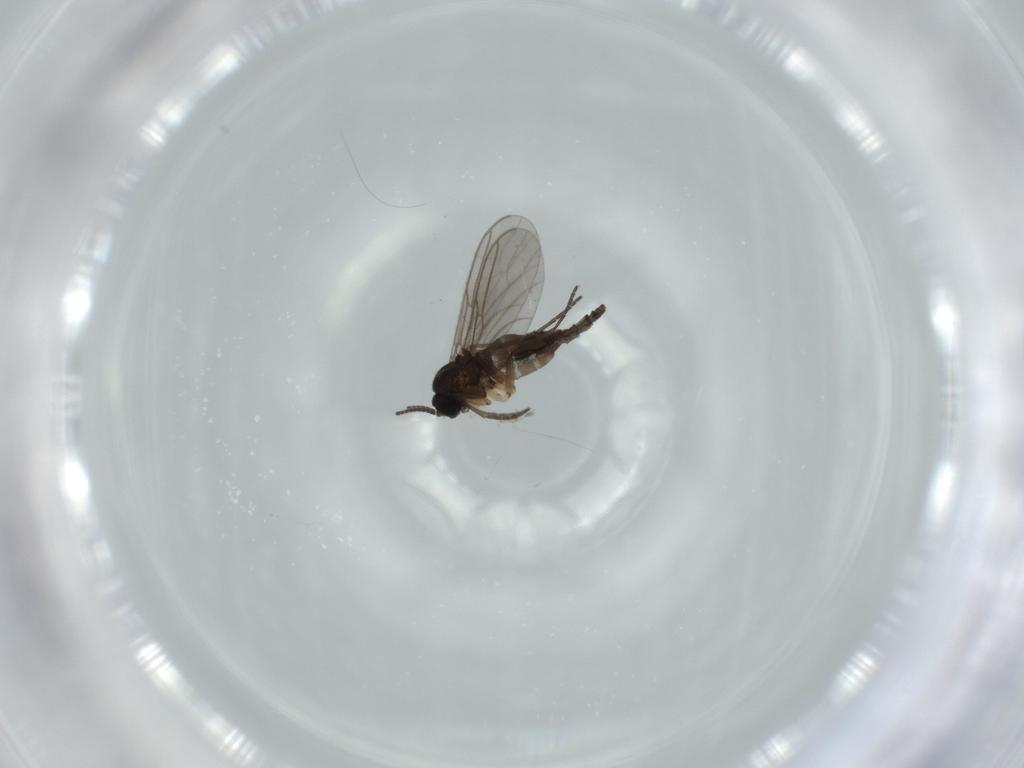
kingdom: Animalia
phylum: Arthropoda
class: Insecta
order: Diptera
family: Sciaridae
